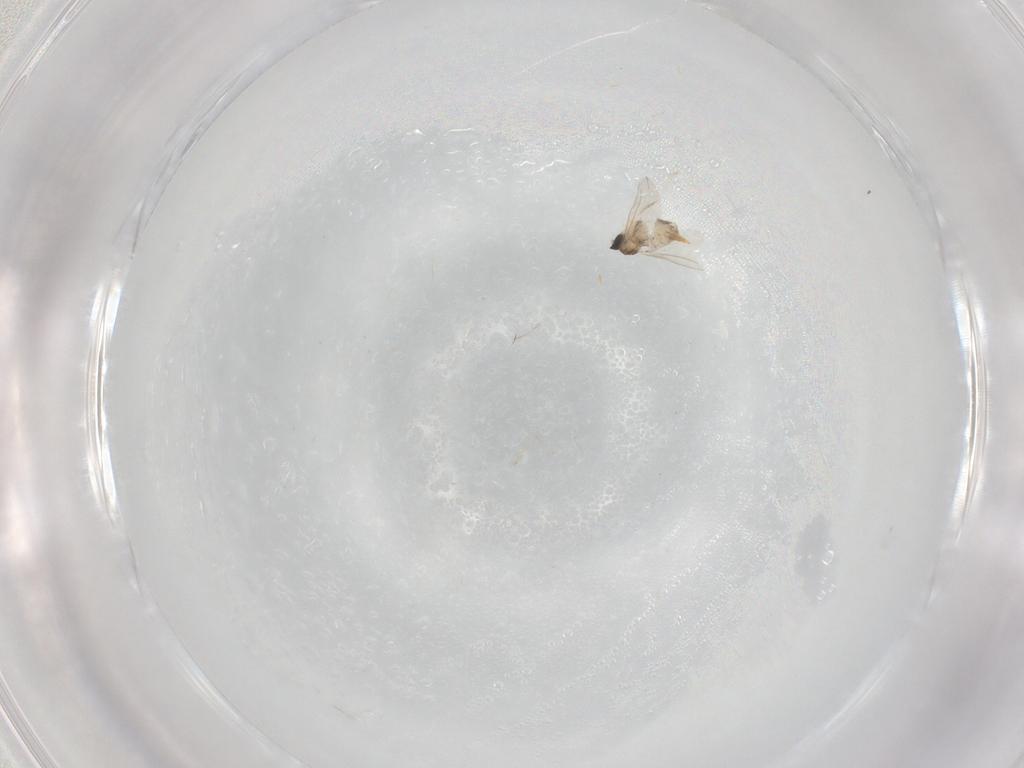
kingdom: Animalia
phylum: Arthropoda
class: Insecta
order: Diptera
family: Cecidomyiidae
